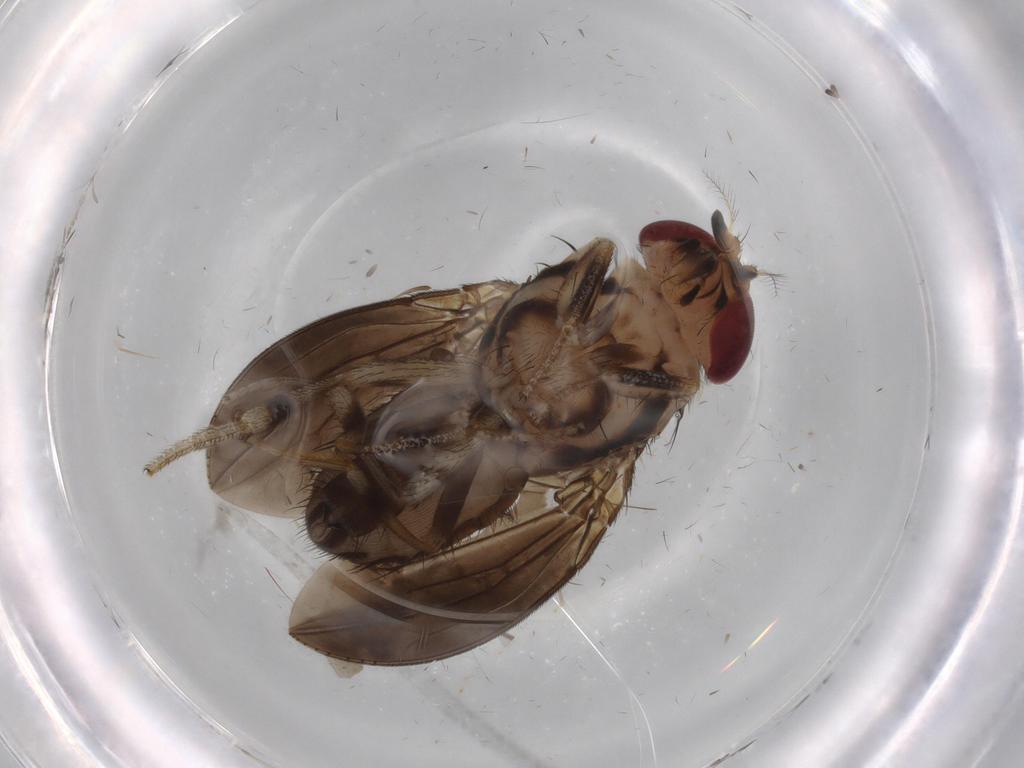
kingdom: Animalia
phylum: Arthropoda
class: Insecta
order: Diptera
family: Cecidomyiidae
